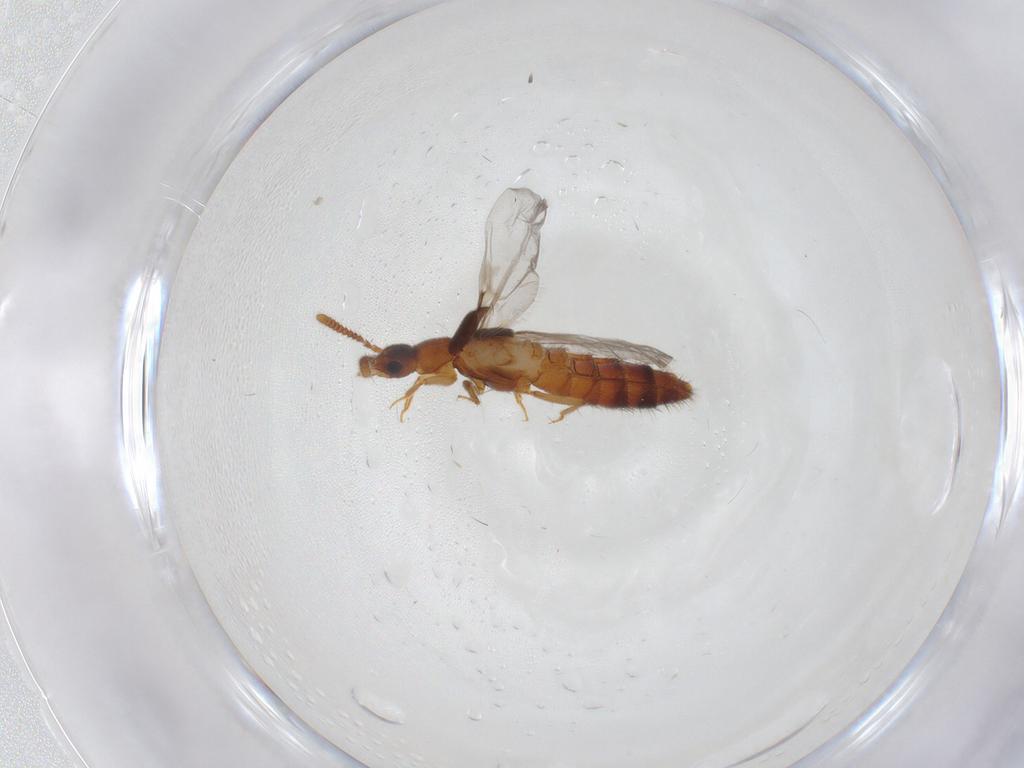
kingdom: Animalia
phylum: Arthropoda
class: Insecta
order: Coleoptera
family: Staphylinidae
